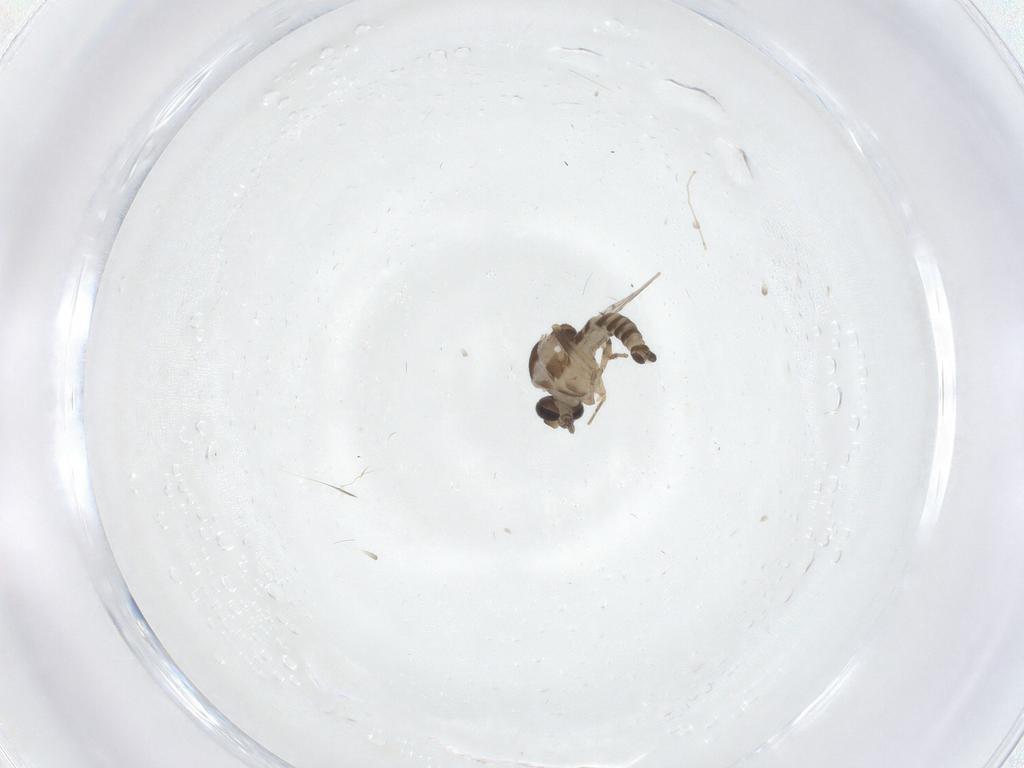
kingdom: Animalia
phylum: Arthropoda
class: Insecta
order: Diptera
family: Ceratopogonidae
